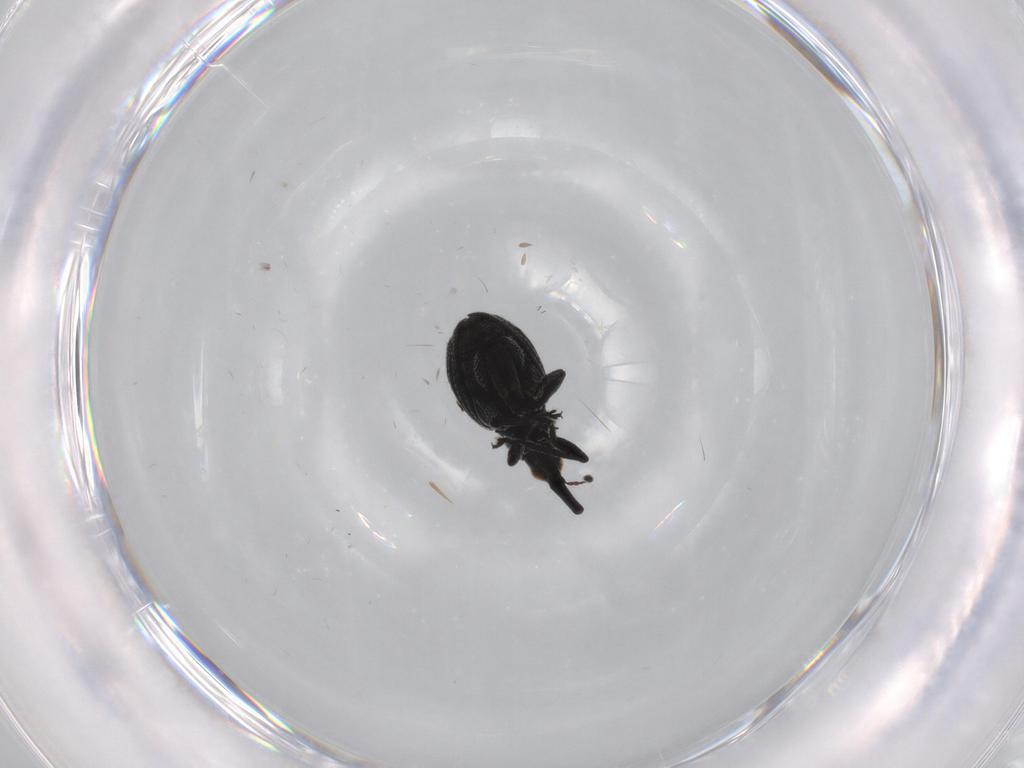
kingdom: Animalia
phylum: Arthropoda
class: Insecta
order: Coleoptera
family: Brentidae
